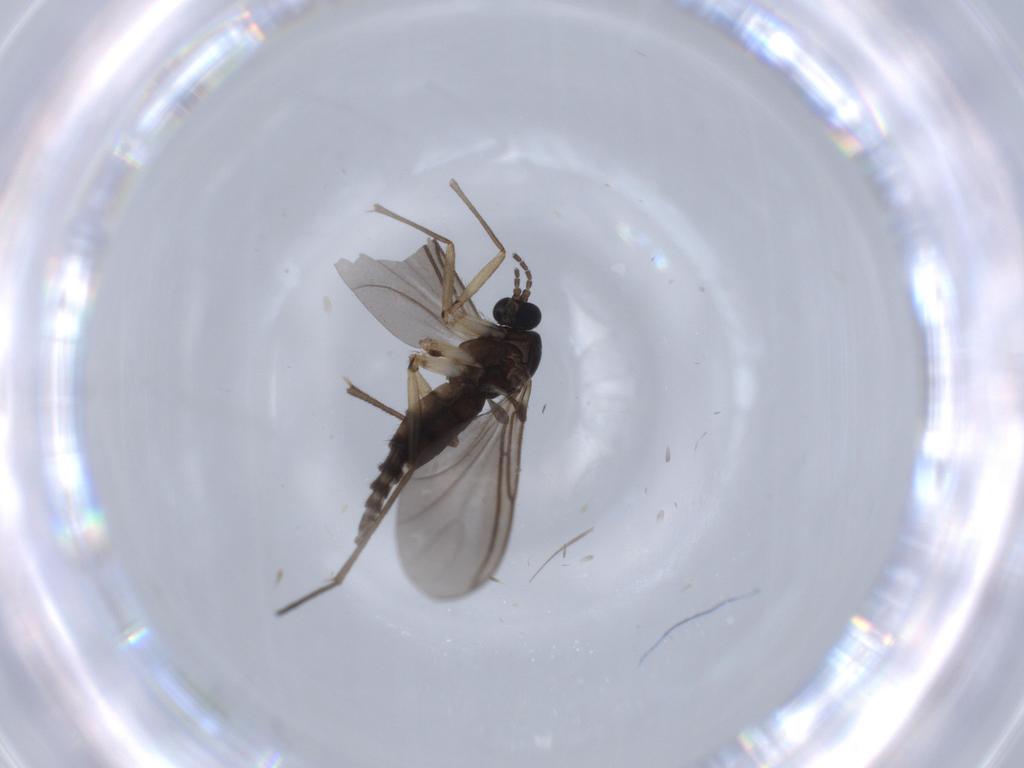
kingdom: Animalia
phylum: Arthropoda
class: Insecta
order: Diptera
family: Sciaridae
